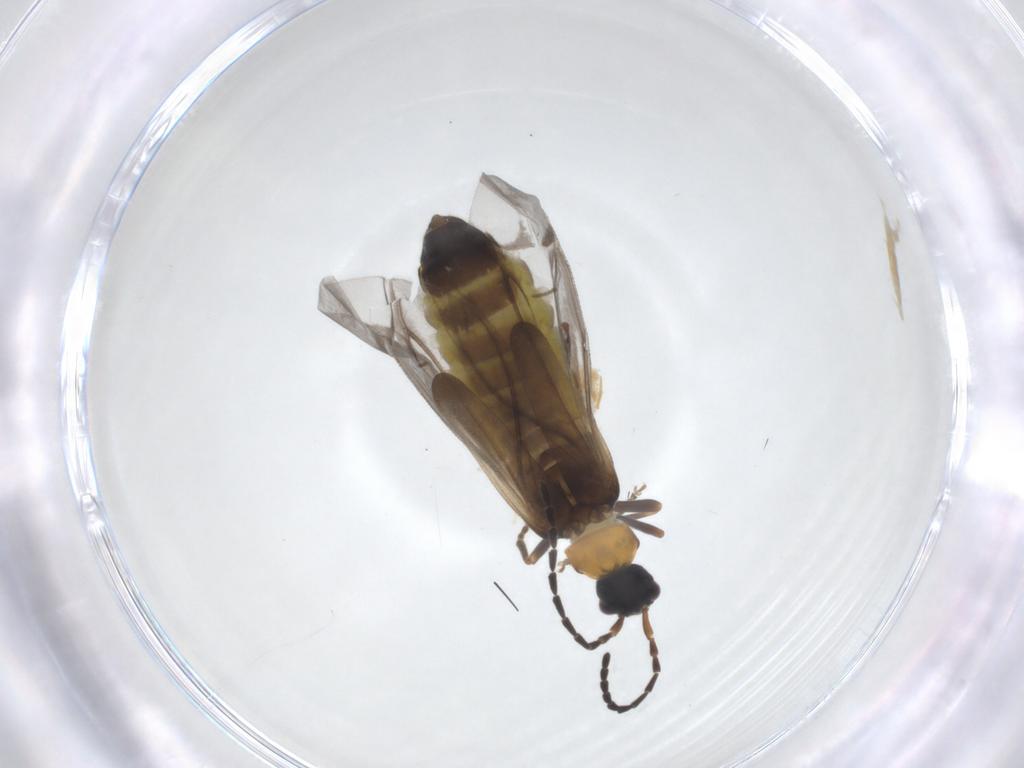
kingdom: Animalia
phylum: Arthropoda
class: Insecta
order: Coleoptera
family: Cantharidae
